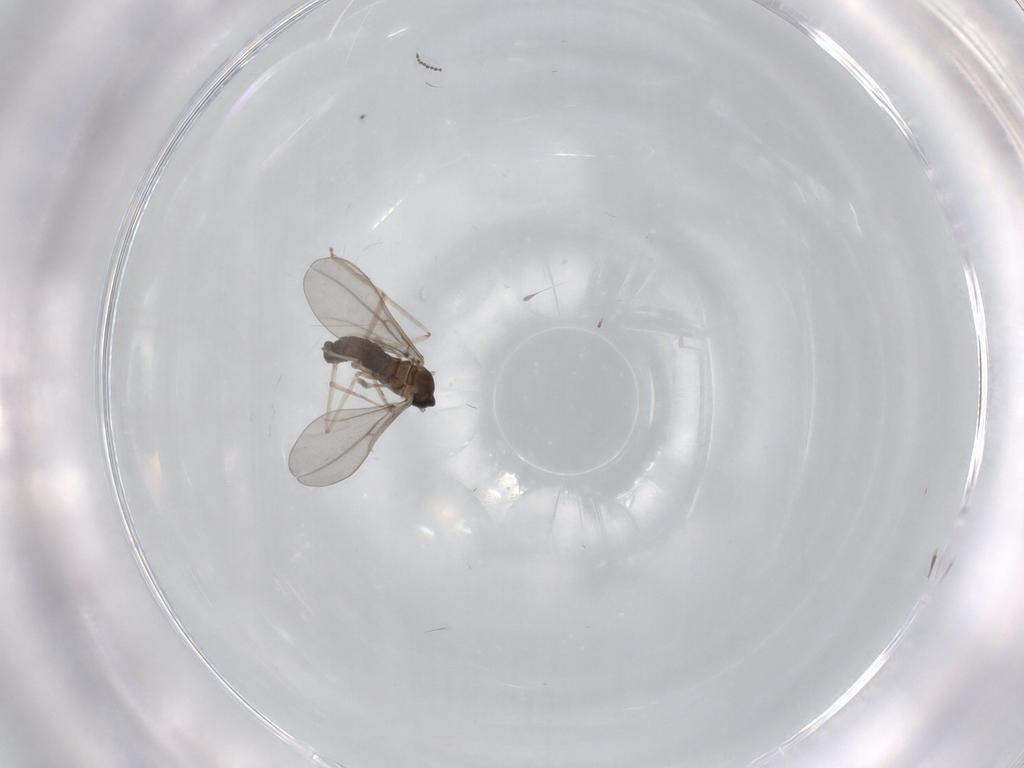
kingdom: Animalia
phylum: Arthropoda
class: Insecta
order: Diptera
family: Cecidomyiidae
